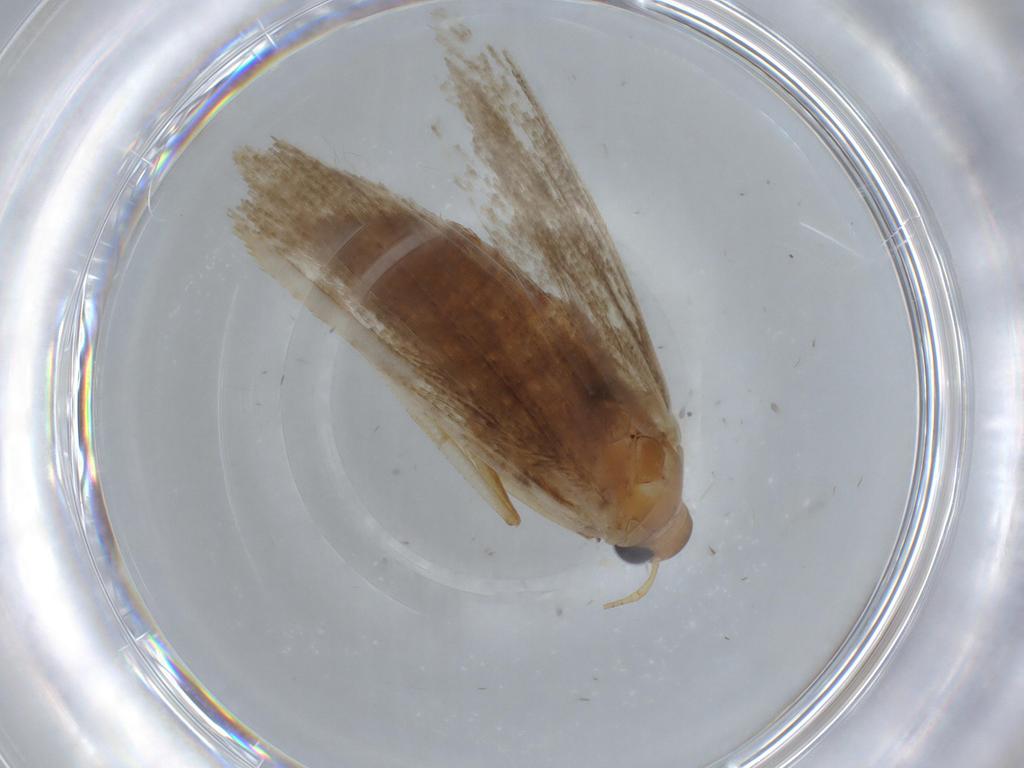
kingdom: Animalia
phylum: Arthropoda
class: Insecta
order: Lepidoptera
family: Blastobasidae
